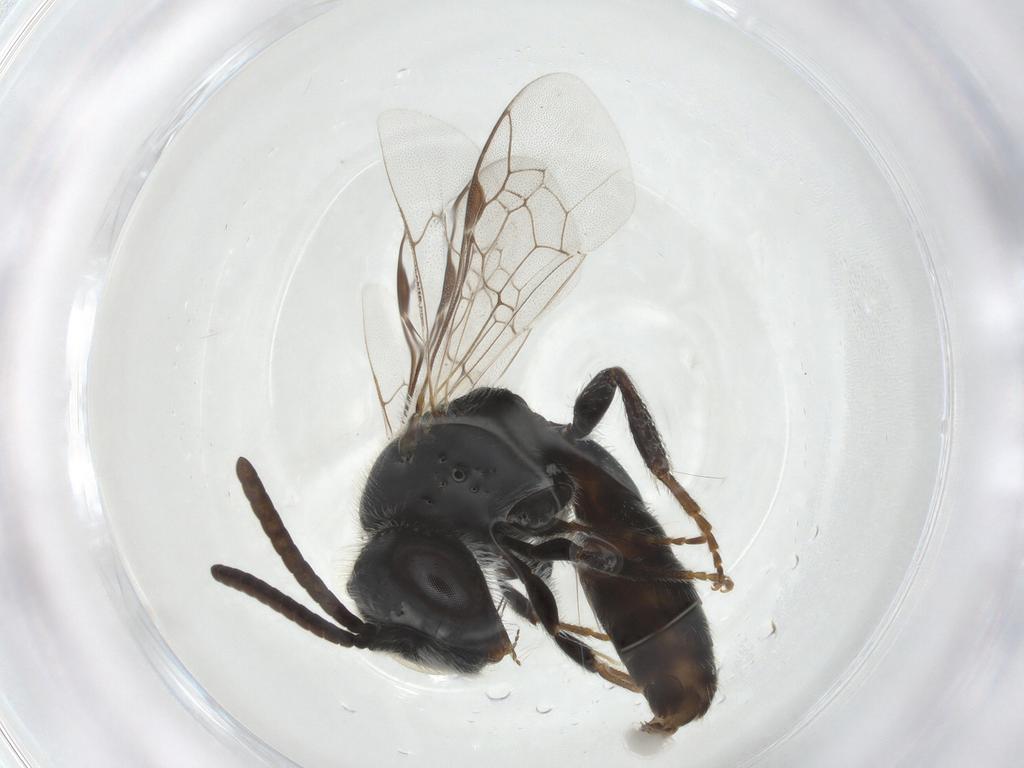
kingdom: Animalia
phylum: Arthropoda
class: Insecta
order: Hymenoptera
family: Halictidae
